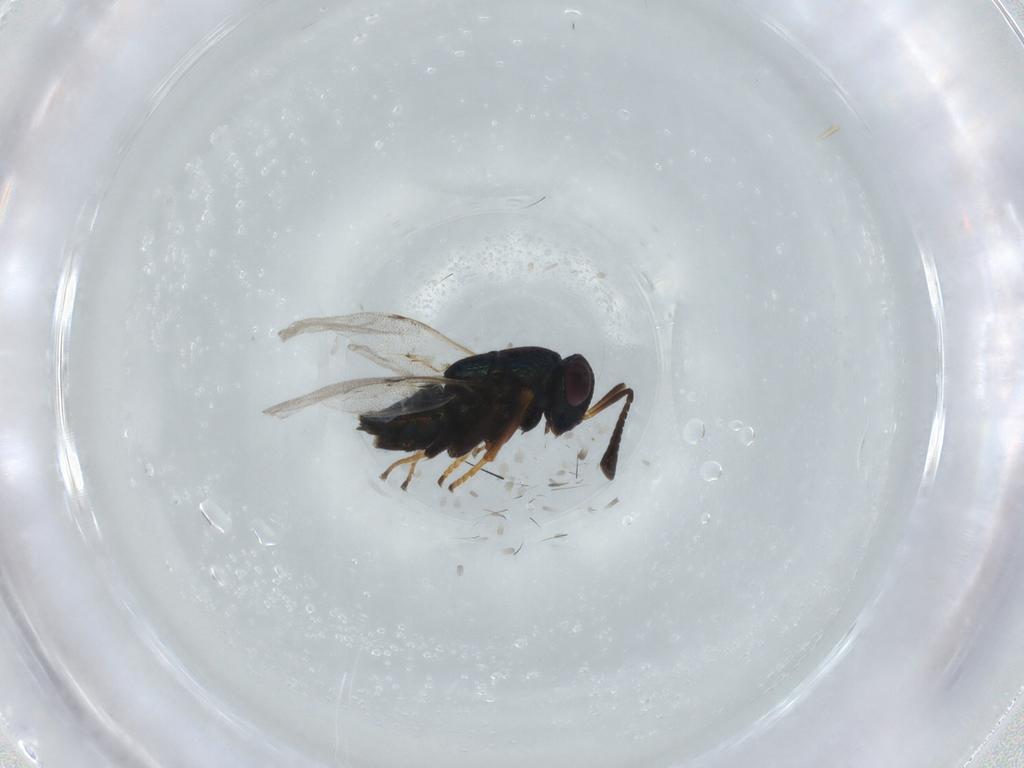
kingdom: Animalia
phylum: Arthropoda
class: Insecta
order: Hymenoptera
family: Encyrtidae
